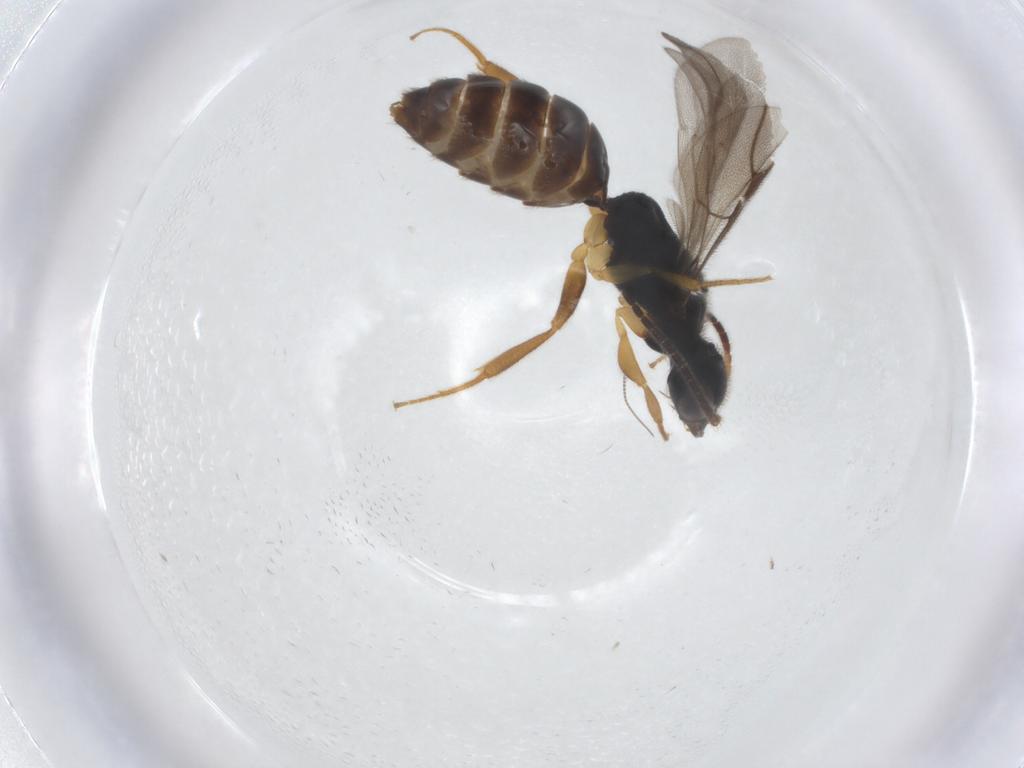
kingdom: Animalia
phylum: Arthropoda
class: Insecta
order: Hymenoptera
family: Bethylidae
